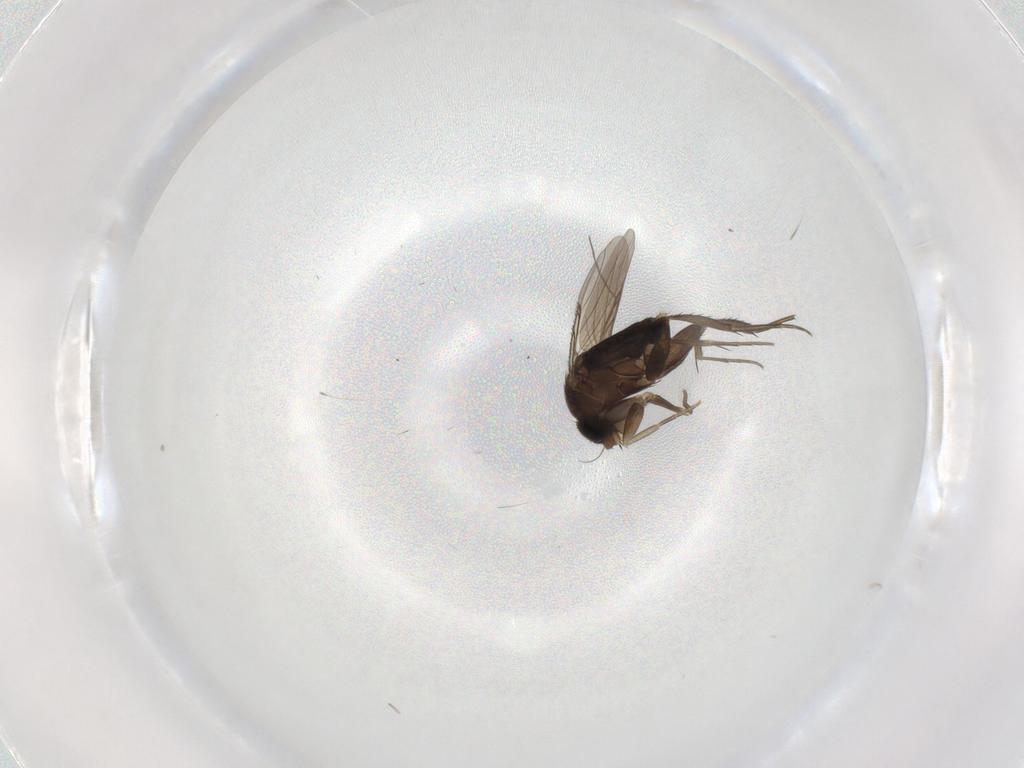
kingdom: Animalia
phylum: Arthropoda
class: Insecta
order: Diptera
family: Phoridae
